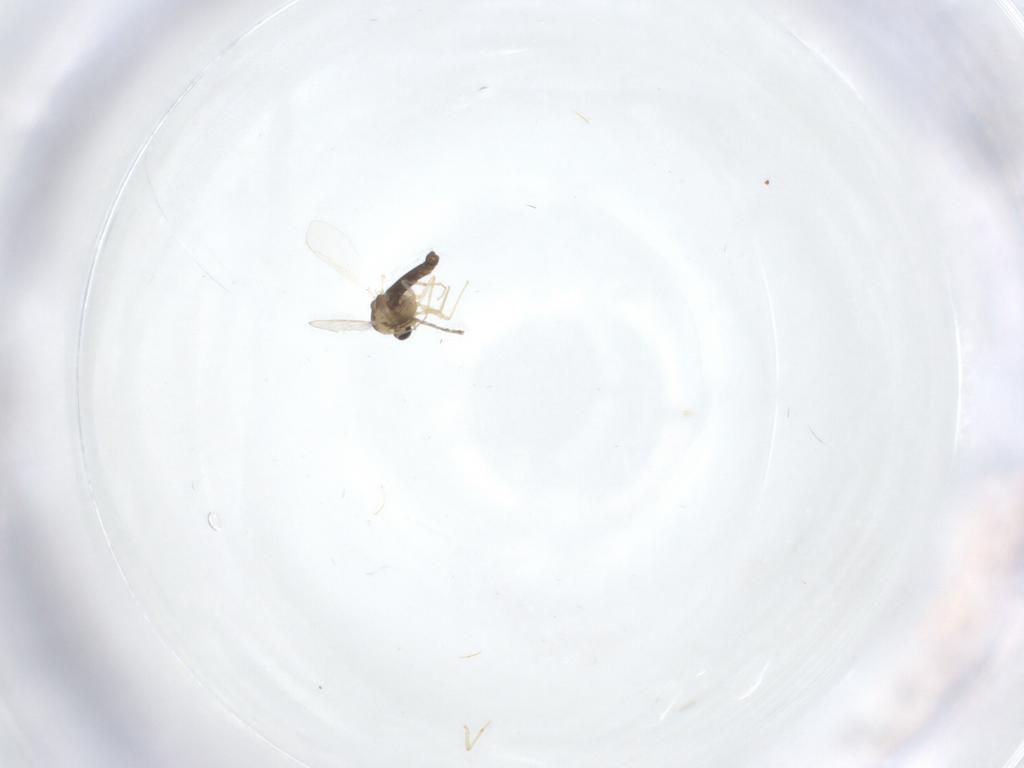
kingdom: Animalia
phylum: Arthropoda
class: Insecta
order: Diptera
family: Chironomidae
